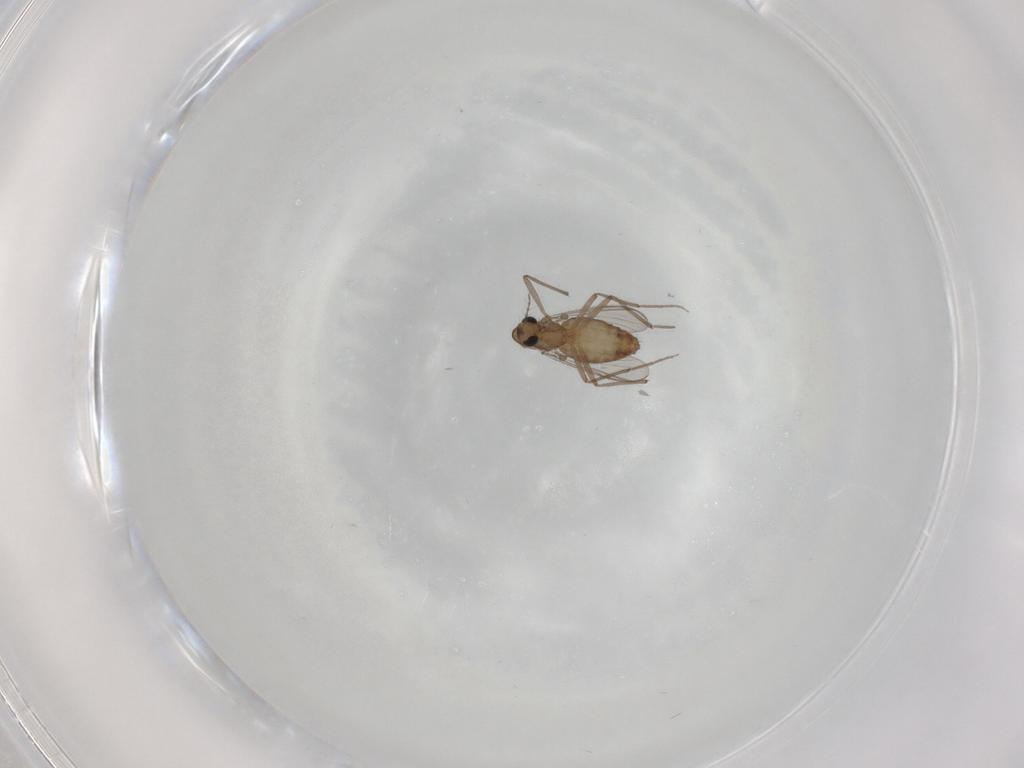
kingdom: Animalia
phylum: Arthropoda
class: Insecta
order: Diptera
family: Chironomidae
